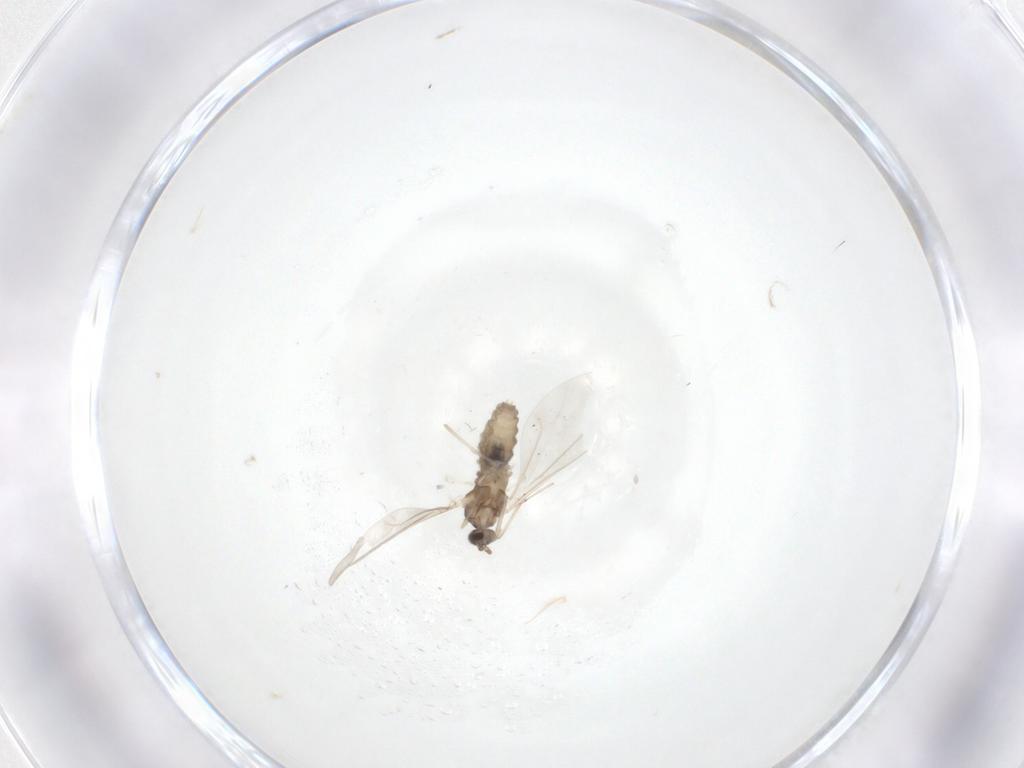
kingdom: Animalia
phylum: Arthropoda
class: Insecta
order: Diptera
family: Cecidomyiidae
